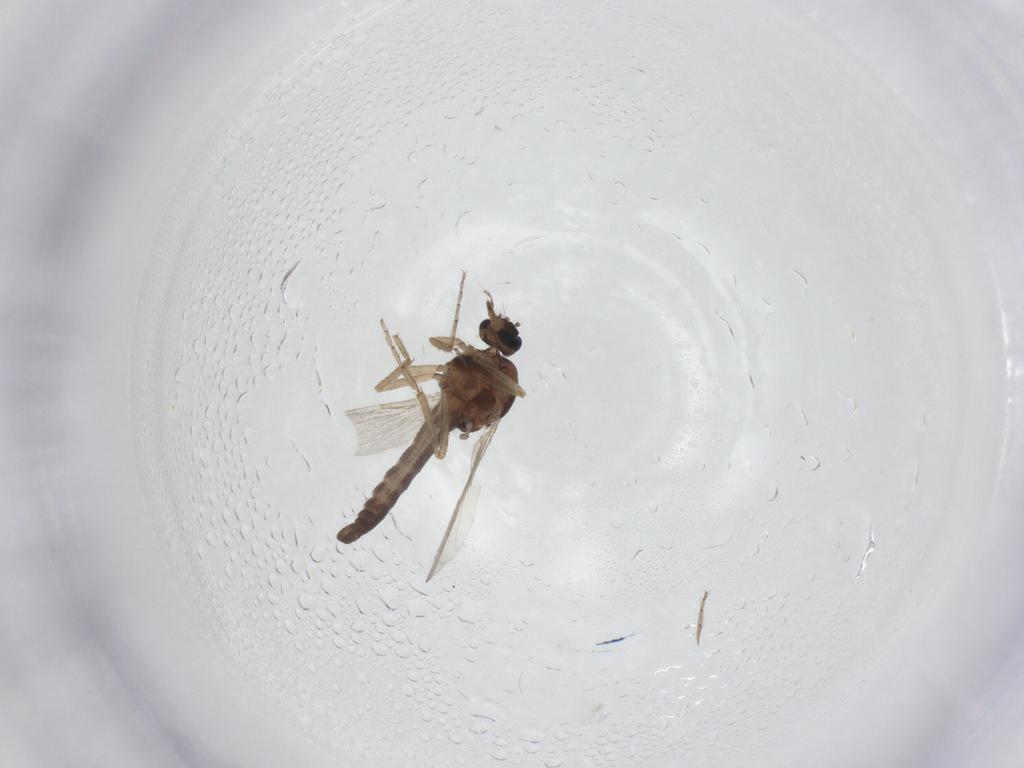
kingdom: Animalia
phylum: Arthropoda
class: Insecta
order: Diptera
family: Ceratopogonidae
